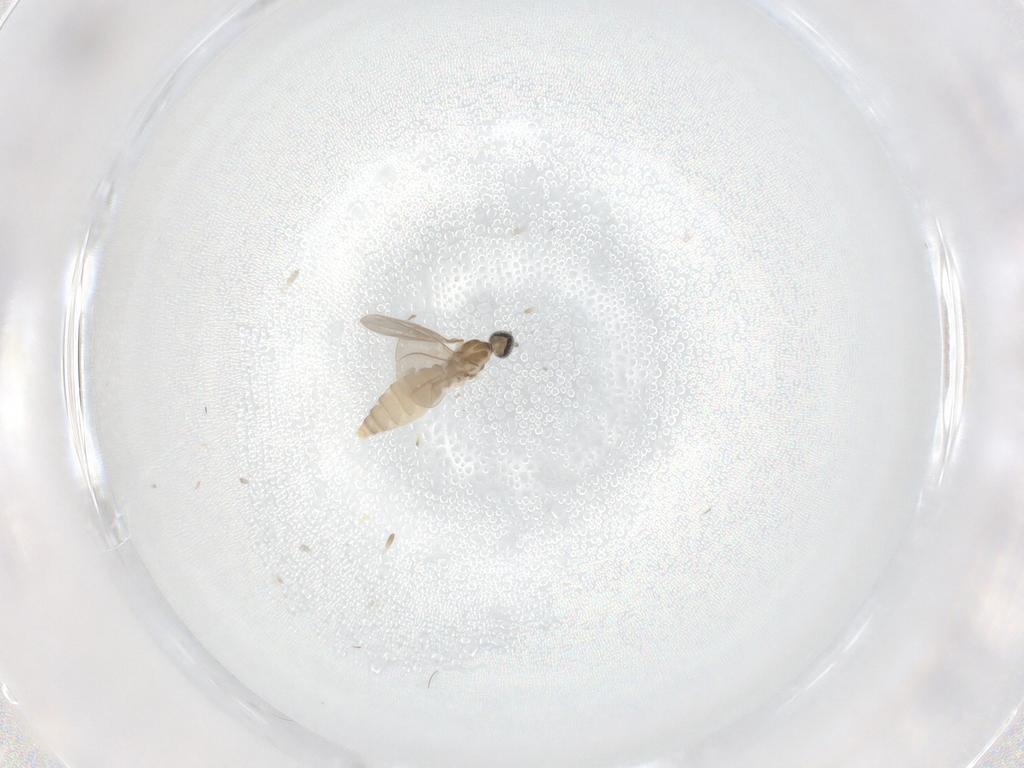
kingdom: Animalia
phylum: Arthropoda
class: Insecta
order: Diptera
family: Cecidomyiidae
